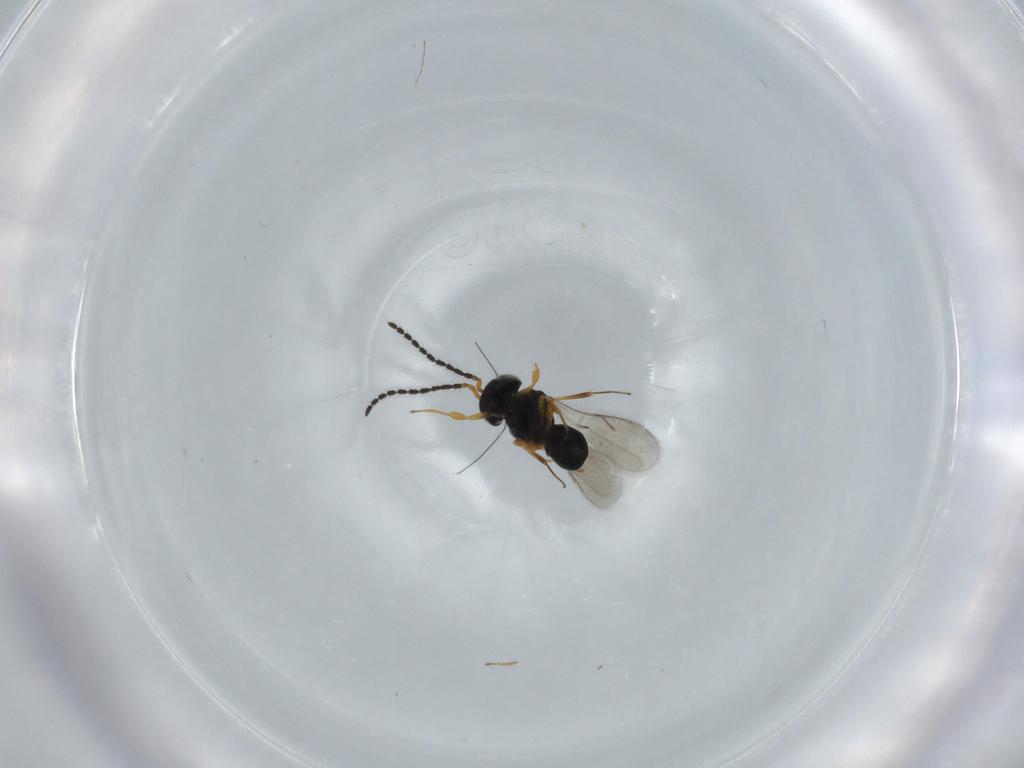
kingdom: Animalia
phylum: Arthropoda
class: Insecta
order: Hymenoptera
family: Scelionidae
